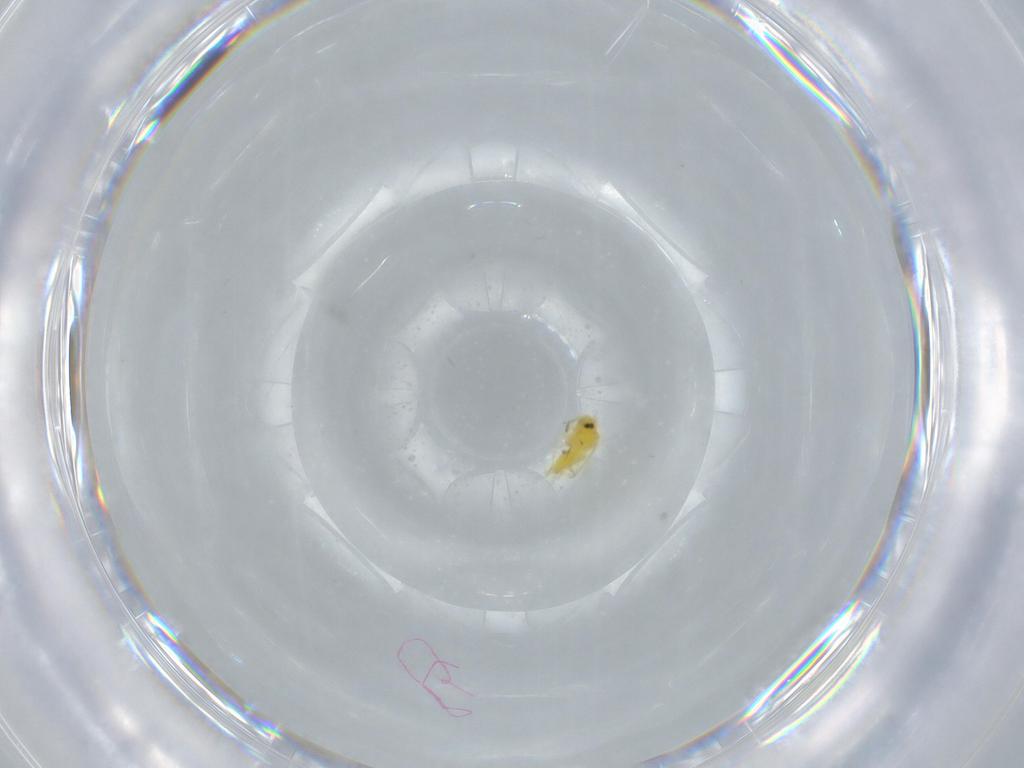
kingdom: Animalia
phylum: Arthropoda
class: Insecta
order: Hemiptera
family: Aleyrodidae
